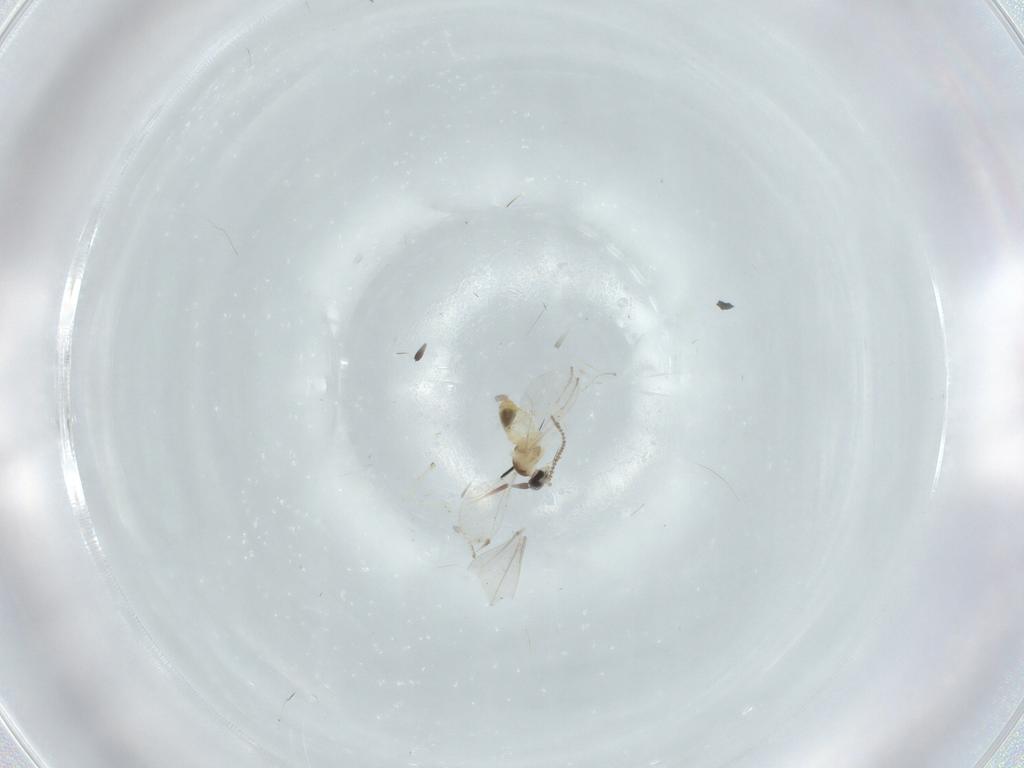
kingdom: Animalia
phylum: Arthropoda
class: Insecta
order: Diptera
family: Cecidomyiidae
